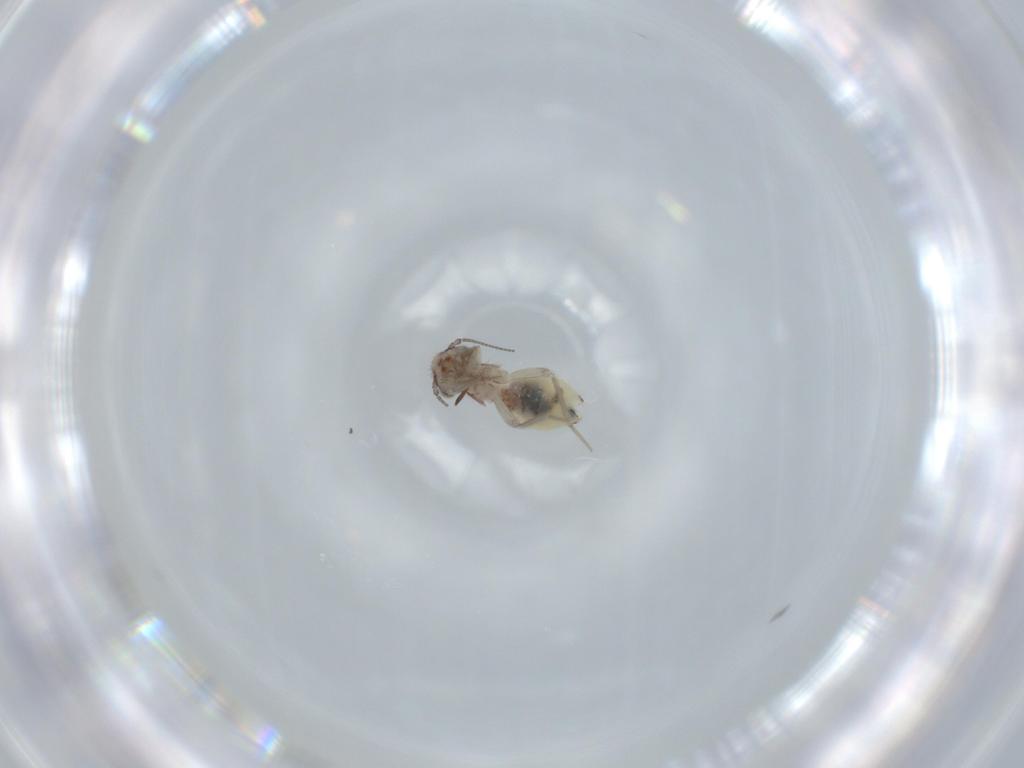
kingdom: Animalia
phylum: Arthropoda
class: Insecta
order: Psocodea
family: Lepidopsocidae
